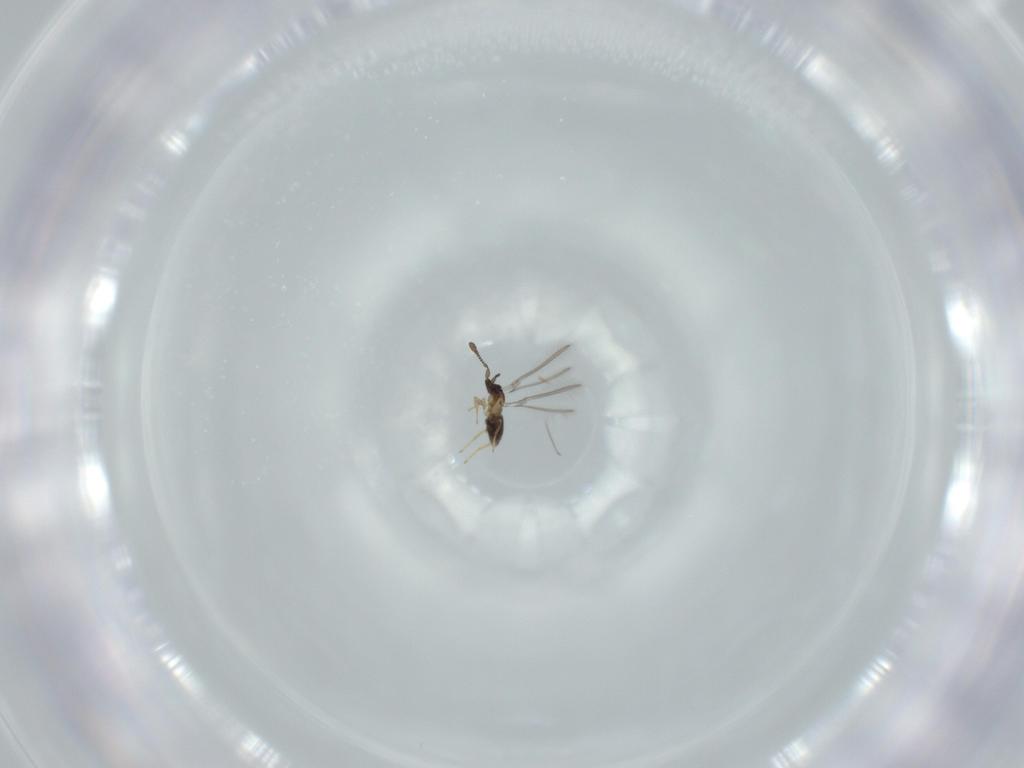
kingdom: Animalia
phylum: Arthropoda
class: Insecta
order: Hymenoptera
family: Mymaridae
